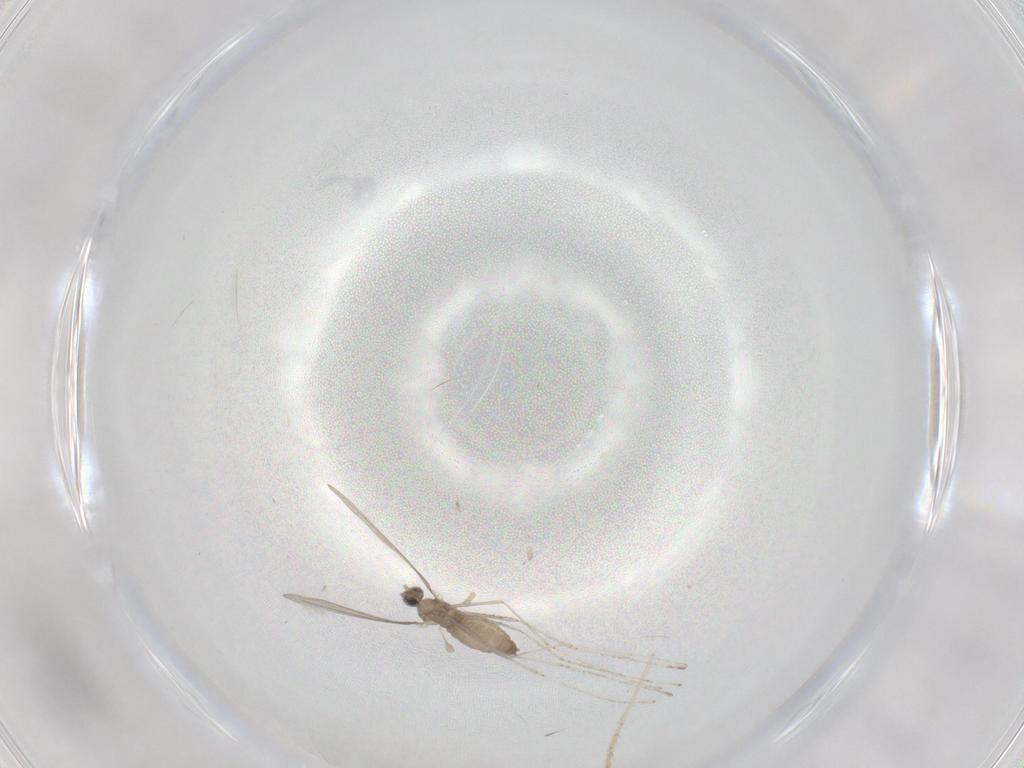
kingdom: Animalia
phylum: Arthropoda
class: Insecta
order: Diptera
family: Cecidomyiidae
